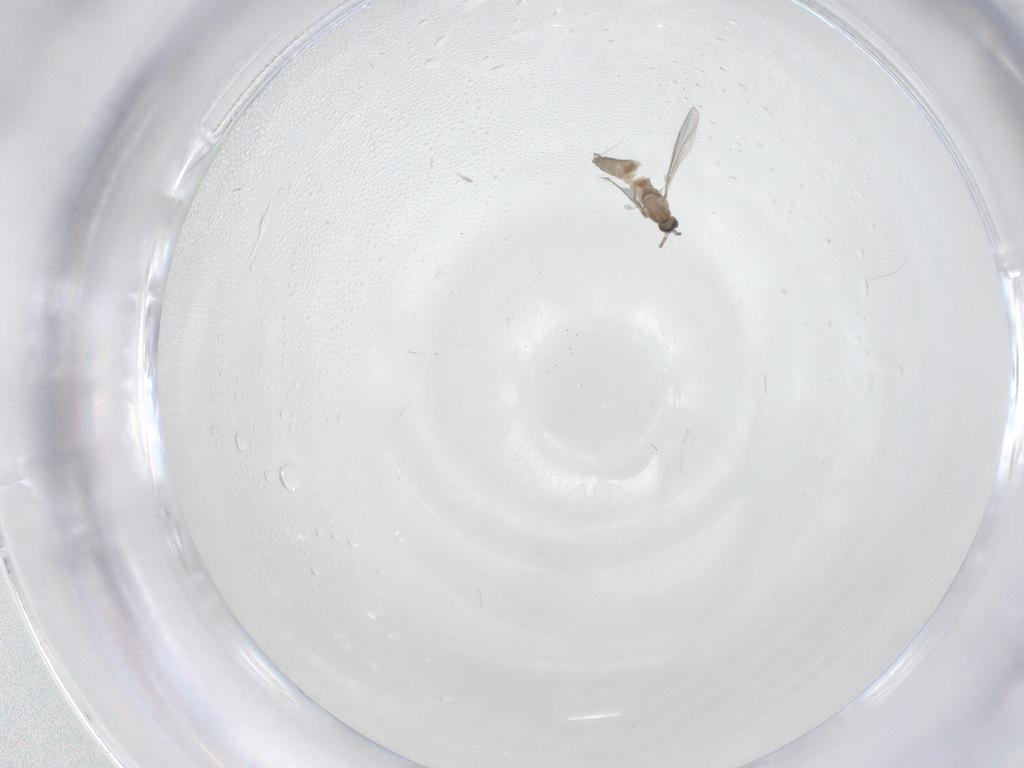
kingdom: Animalia
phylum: Arthropoda
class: Insecta
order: Diptera
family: Cecidomyiidae
